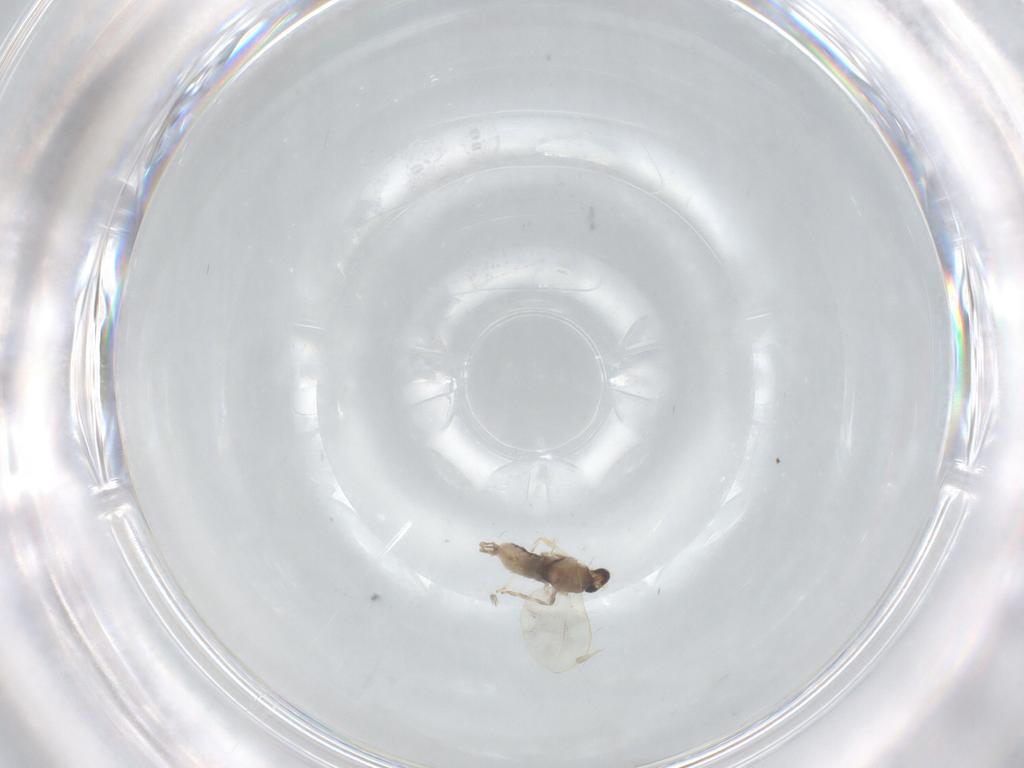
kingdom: Animalia
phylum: Arthropoda
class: Insecta
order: Diptera
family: Cecidomyiidae
